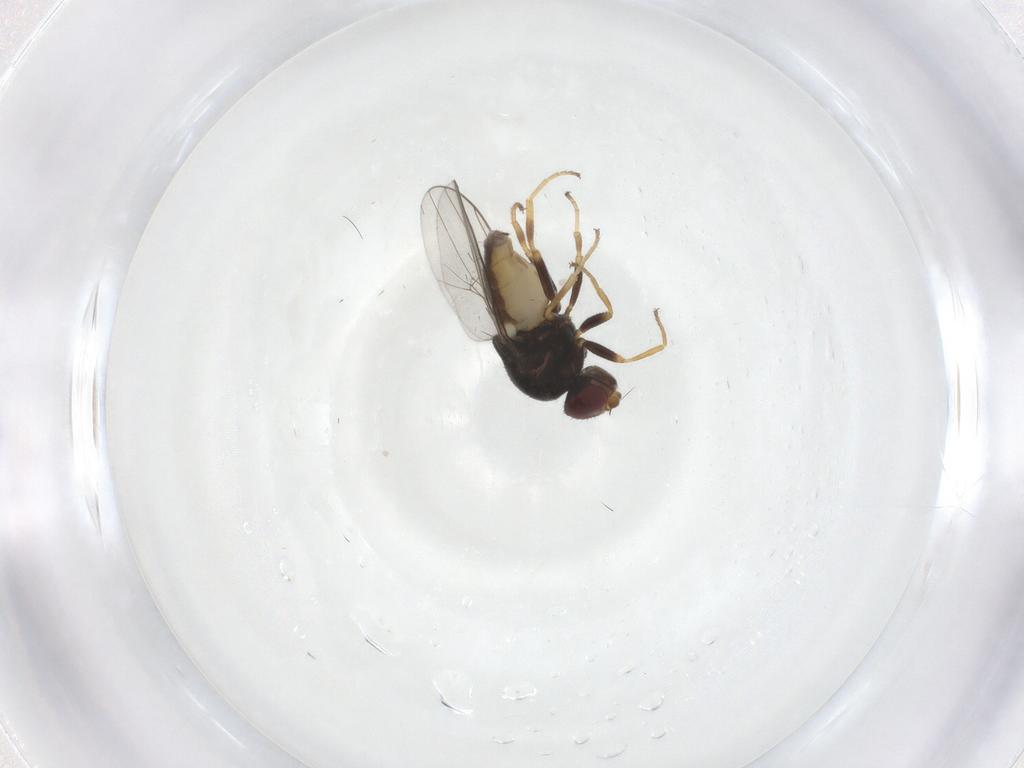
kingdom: Animalia
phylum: Arthropoda
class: Insecta
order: Diptera
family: Chloropidae
